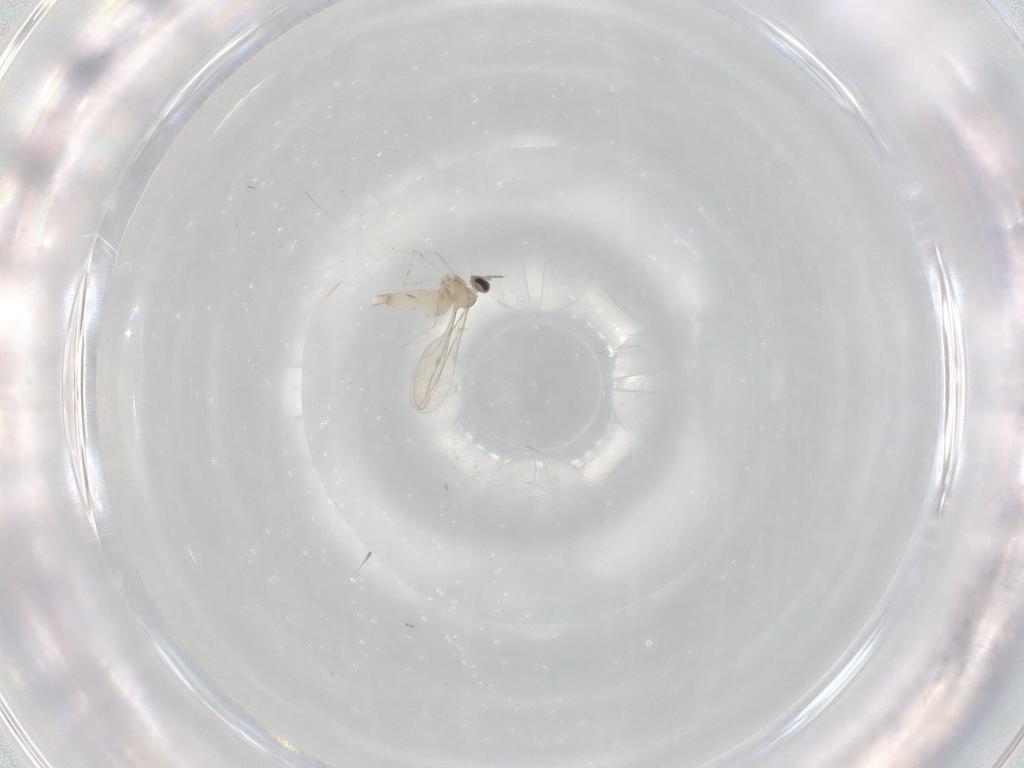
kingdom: Animalia
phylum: Arthropoda
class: Insecta
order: Diptera
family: Cecidomyiidae
